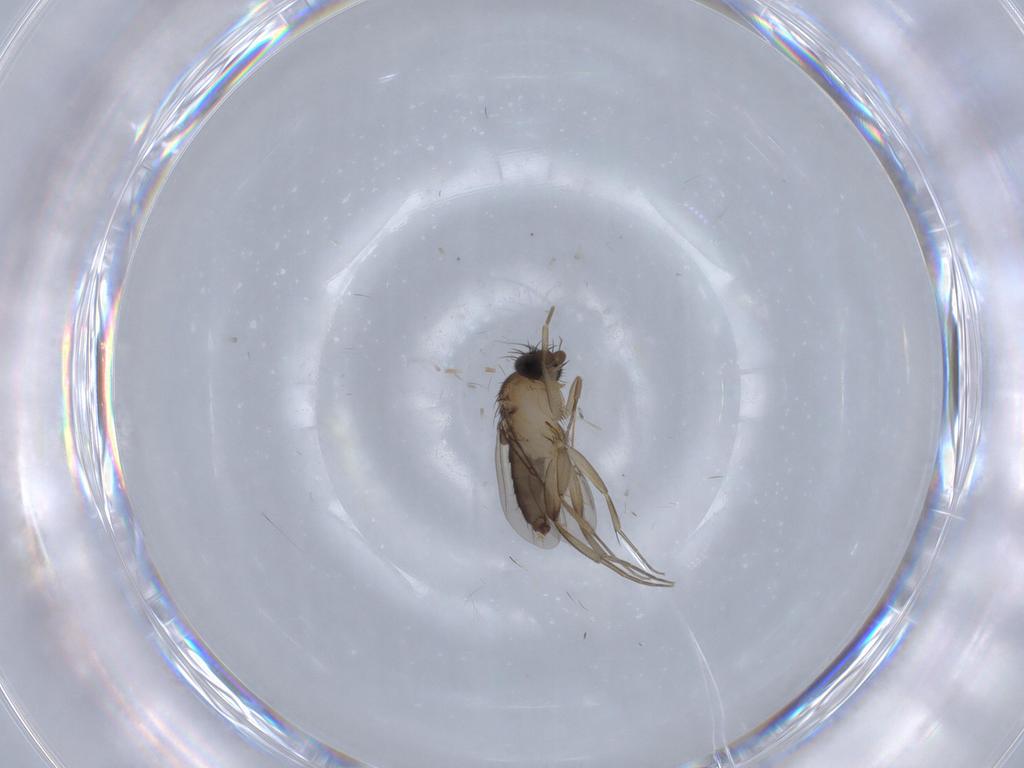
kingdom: Animalia
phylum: Arthropoda
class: Insecta
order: Diptera
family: Phoridae
